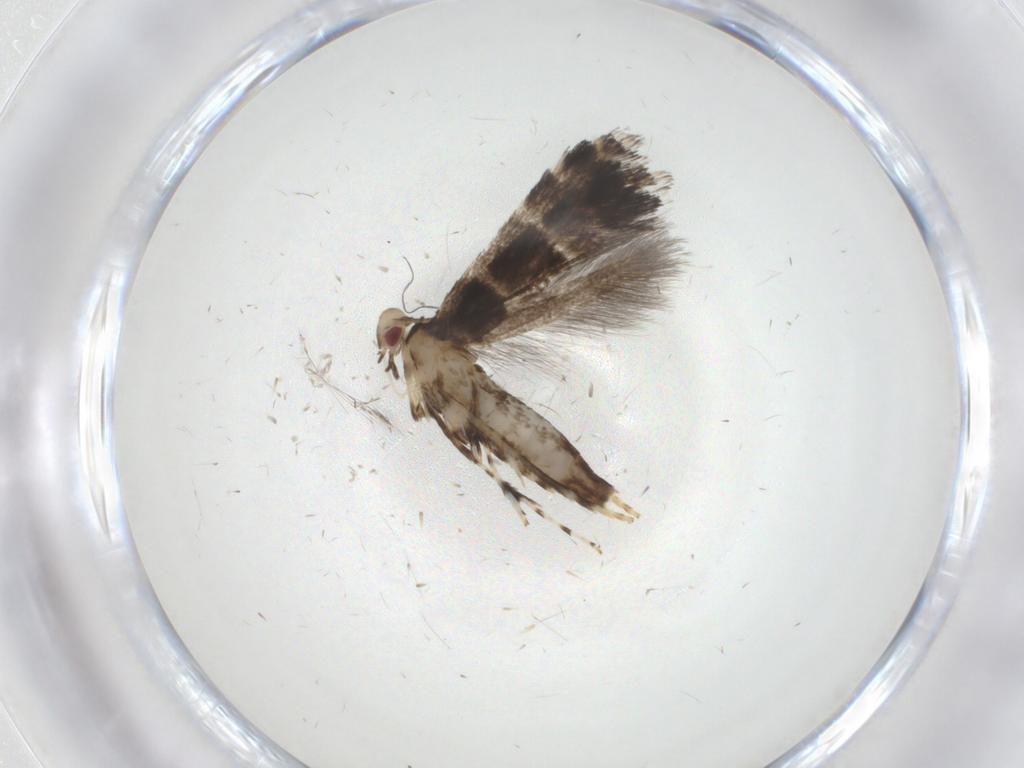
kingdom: Animalia
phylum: Arthropoda
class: Insecta
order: Lepidoptera
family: Gracillariidae
